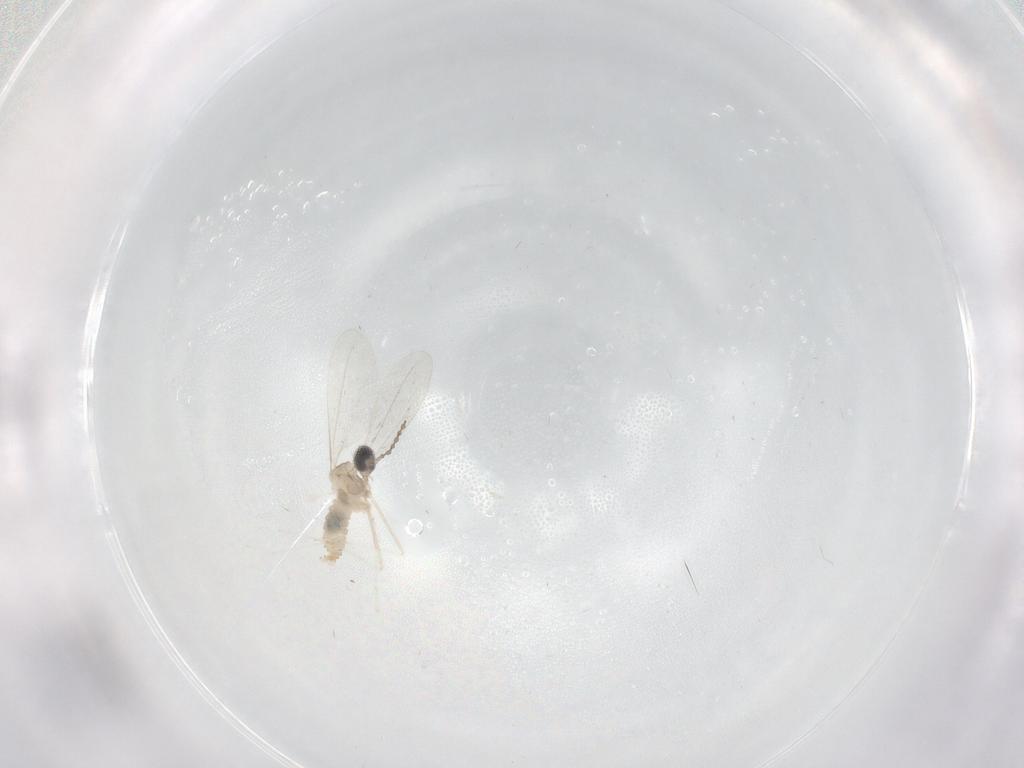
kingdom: Animalia
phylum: Arthropoda
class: Insecta
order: Diptera
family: Cecidomyiidae
